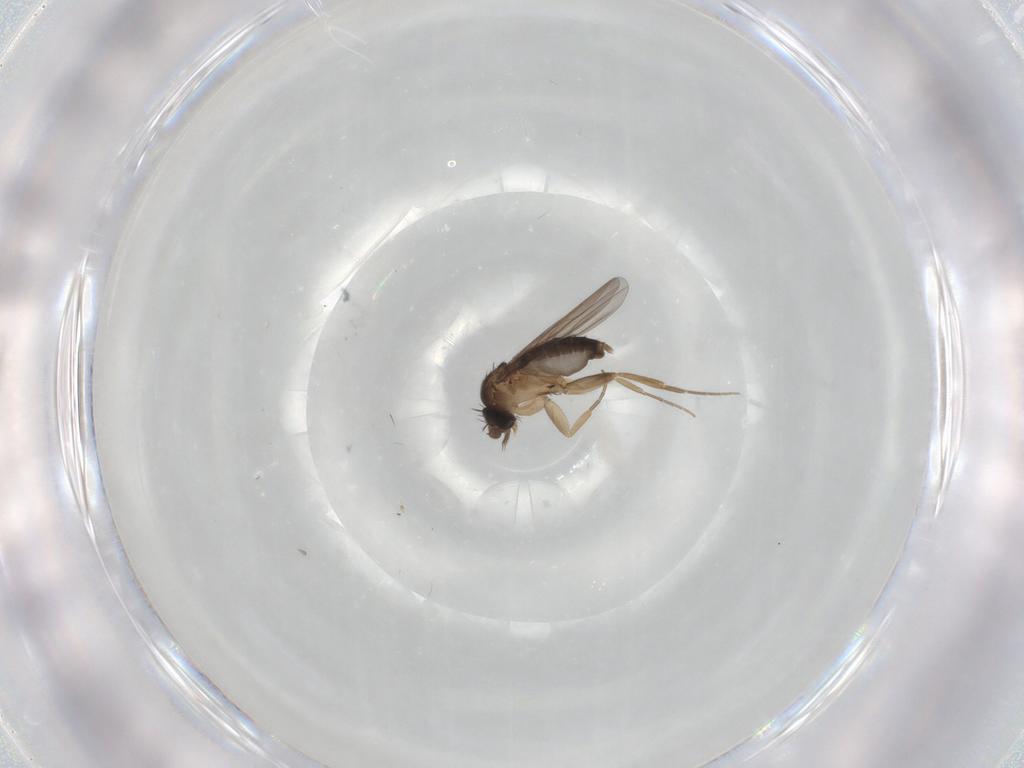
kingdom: Animalia
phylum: Arthropoda
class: Insecta
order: Diptera
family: Phoridae
